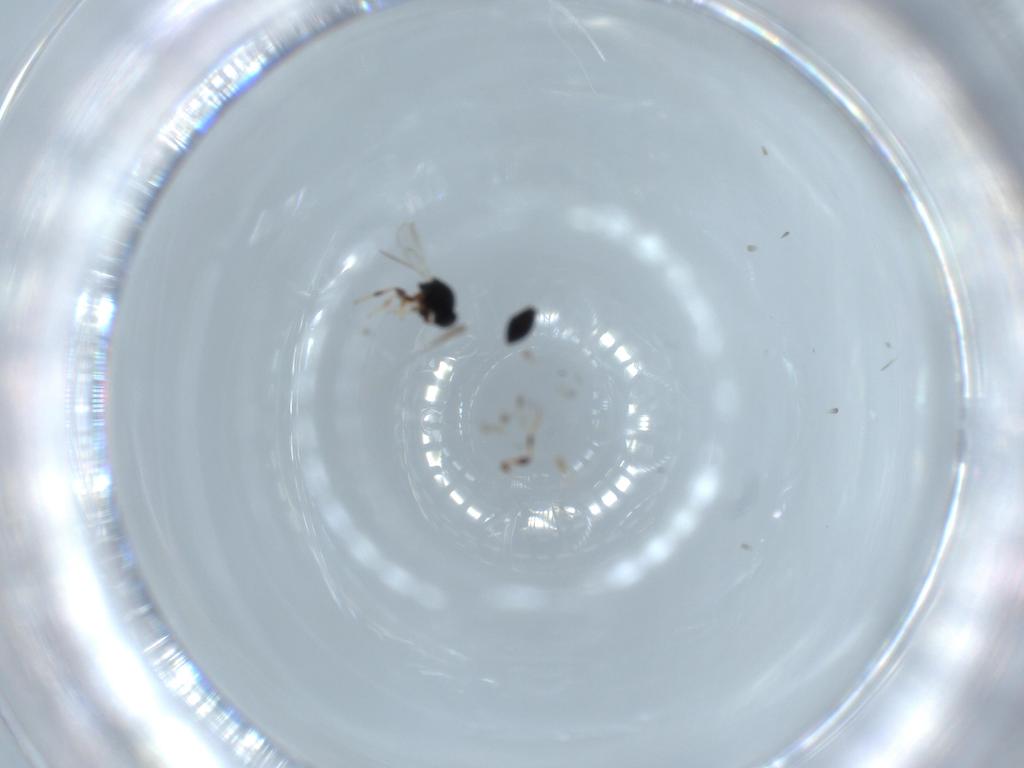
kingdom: Animalia
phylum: Arthropoda
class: Insecta
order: Hymenoptera
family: Platygastridae
